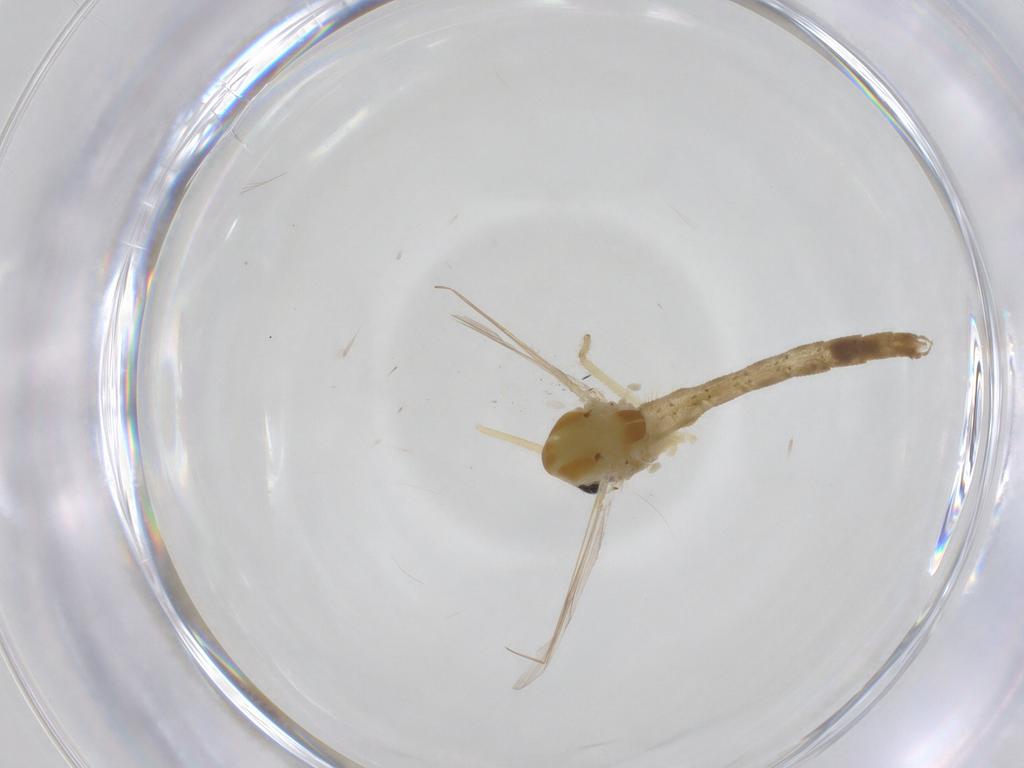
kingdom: Animalia
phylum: Arthropoda
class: Insecta
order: Diptera
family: Chironomidae
